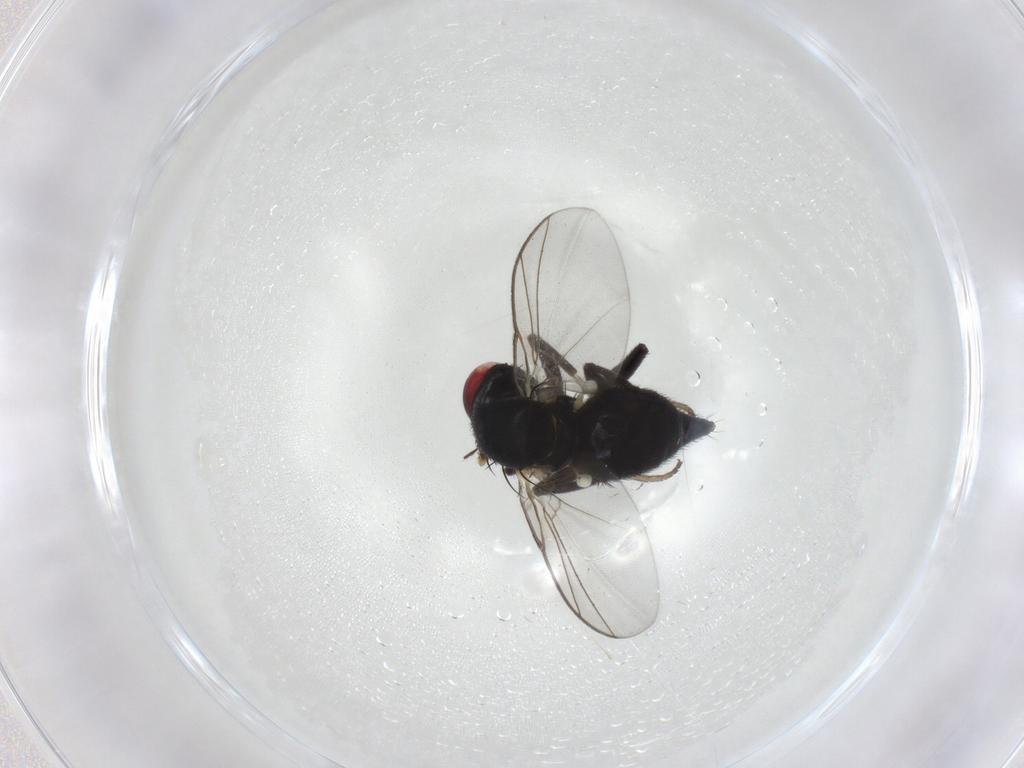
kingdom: Animalia
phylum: Arthropoda
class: Insecta
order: Diptera
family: Agromyzidae
